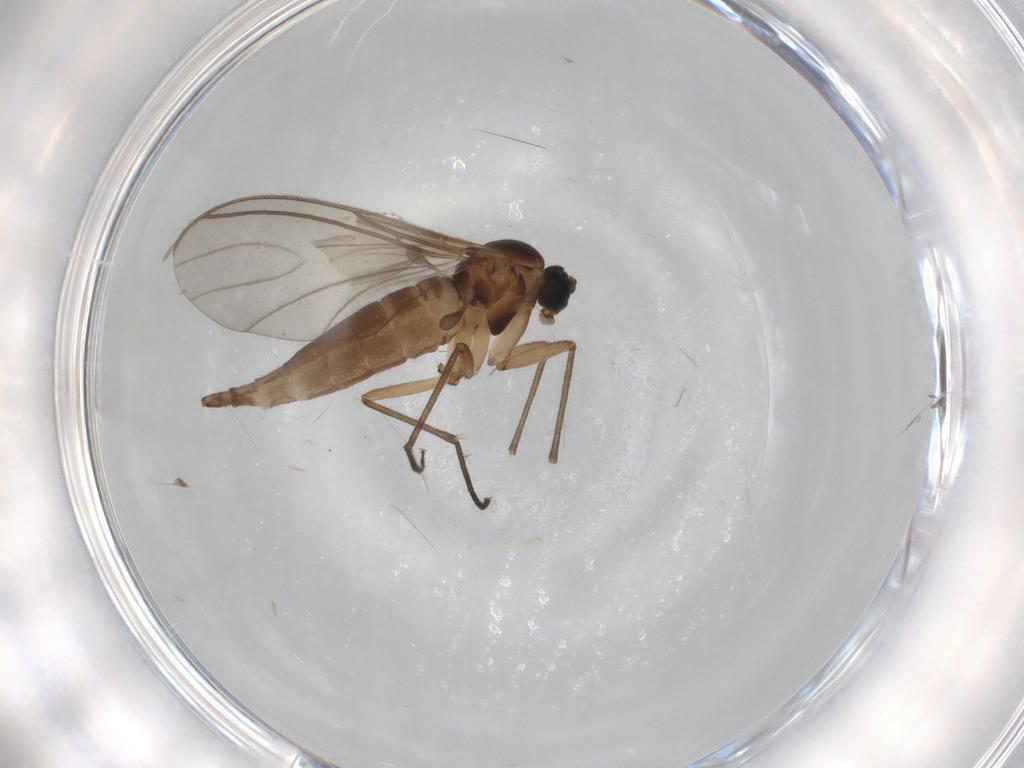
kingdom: Animalia
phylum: Arthropoda
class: Insecta
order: Diptera
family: Sciaridae
